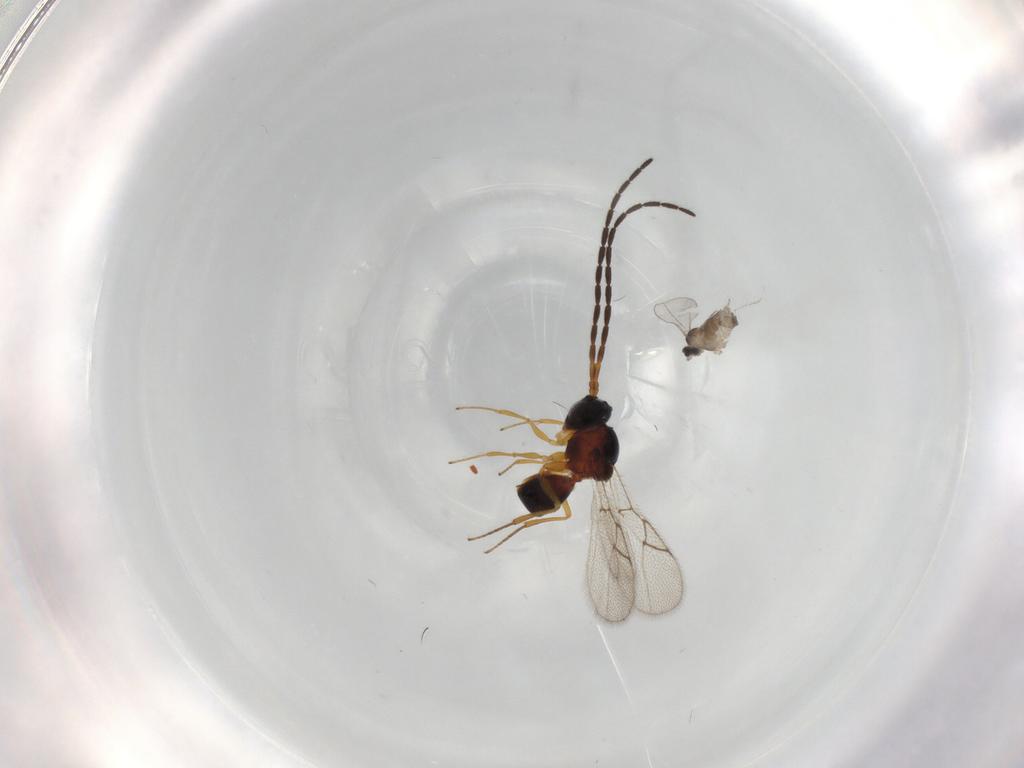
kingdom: Animalia
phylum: Arthropoda
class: Insecta
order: Diptera
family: Cecidomyiidae
